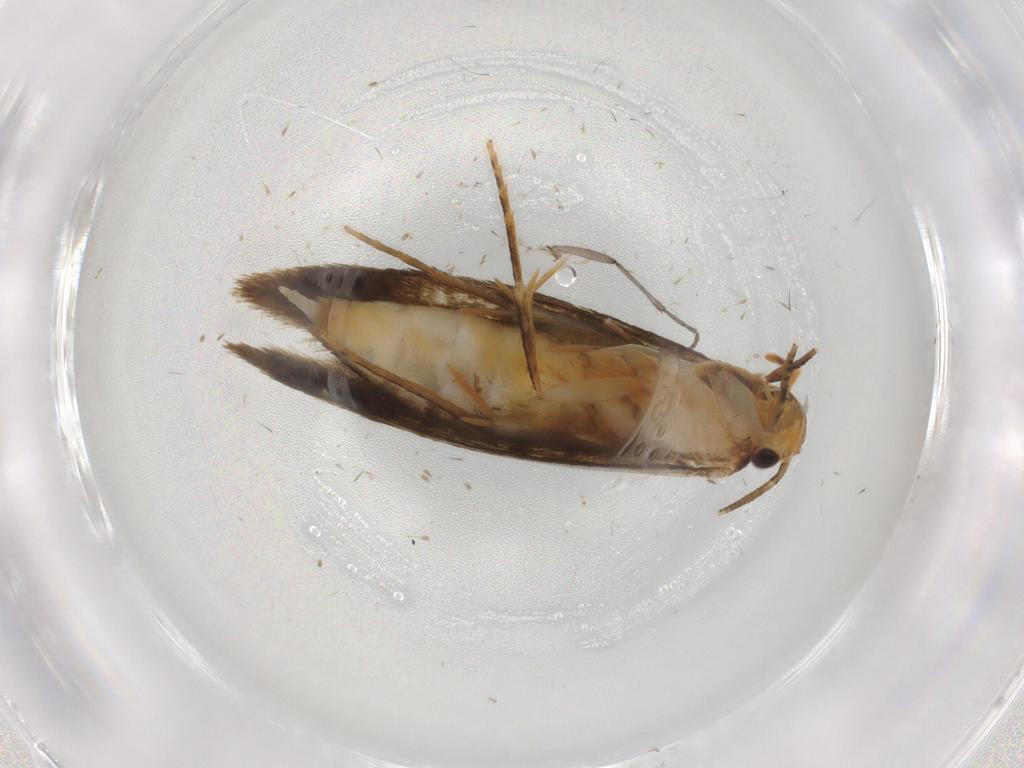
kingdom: Animalia
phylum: Arthropoda
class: Insecta
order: Lepidoptera
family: Tineidae
